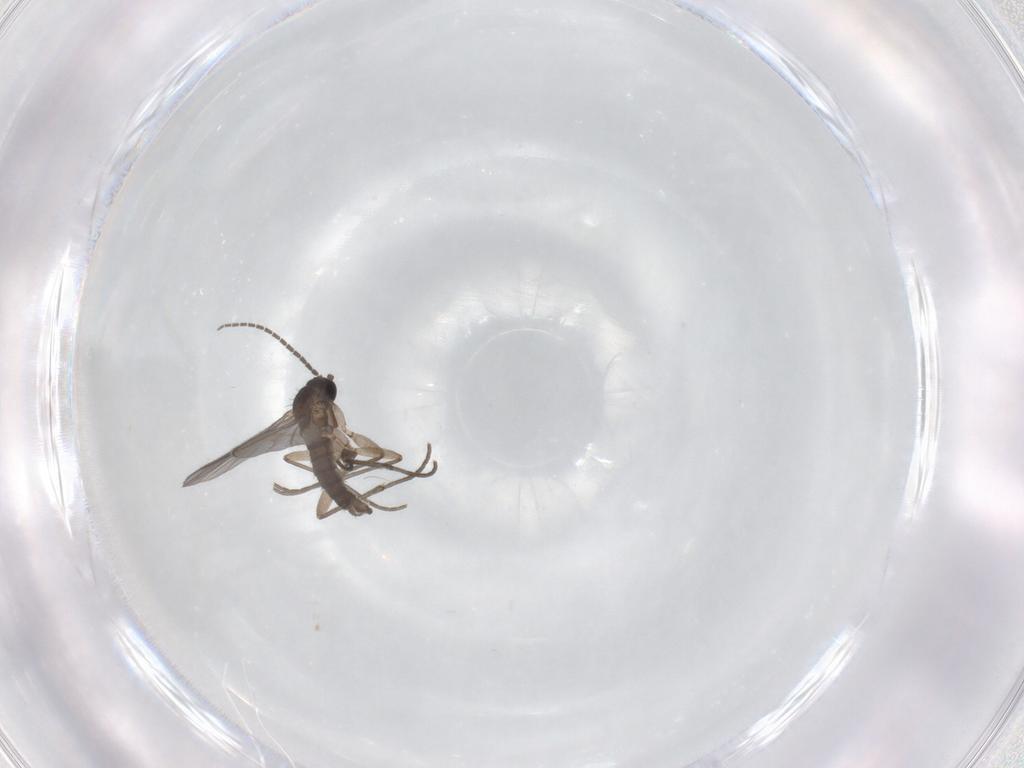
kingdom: Animalia
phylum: Arthropoda
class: Insecta
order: Diptera
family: Sciaridae
